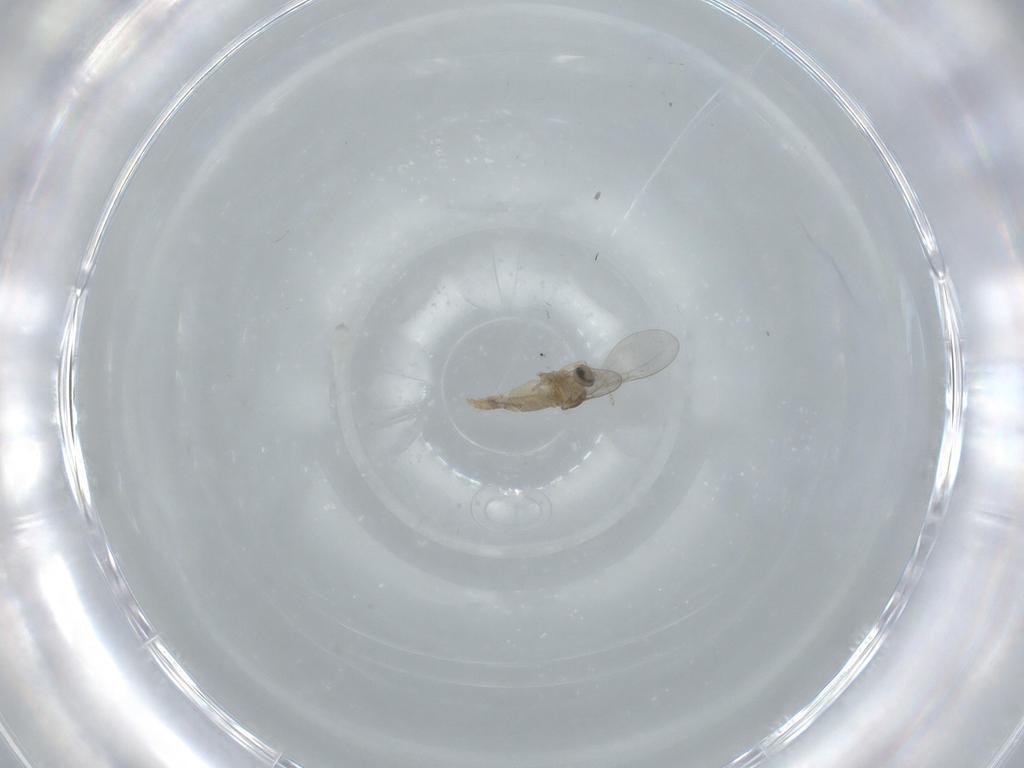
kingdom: Animalia
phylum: Arthropoda
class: Insecta
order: Diptera
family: Cecidomyiidae
